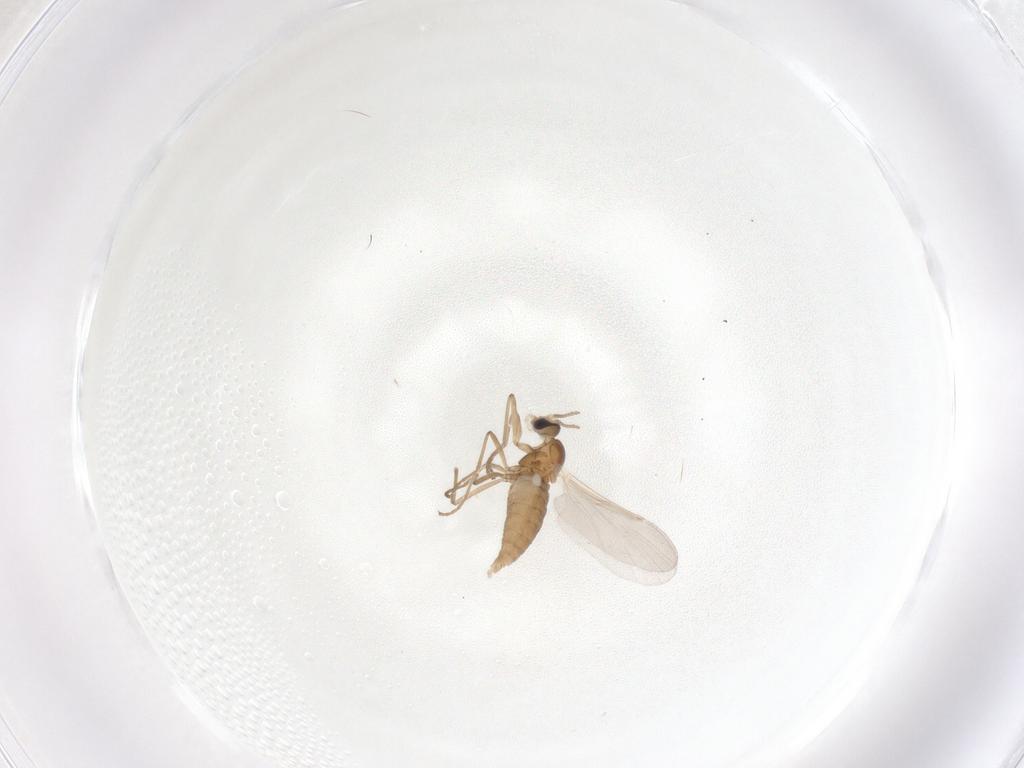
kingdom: Animalia
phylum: Arthropoda
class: Insecta
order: Diptera
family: Cecidomyiidae
